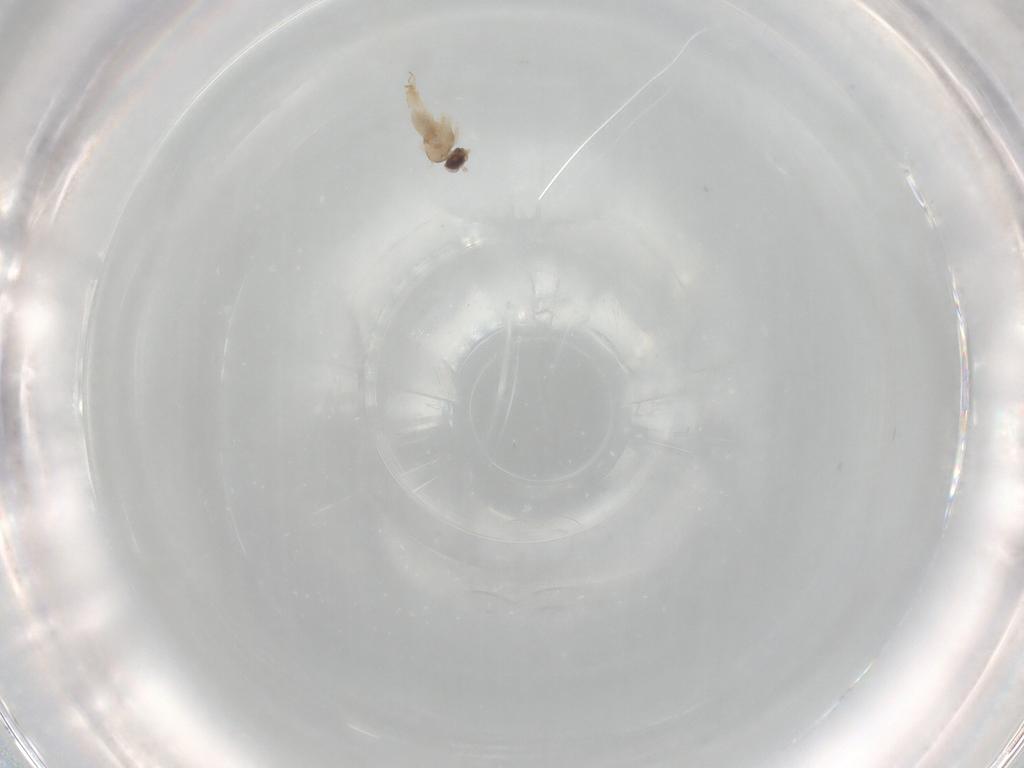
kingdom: Animalia
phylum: Arthropoda
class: Insecta
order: Diptera
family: Anthomyiidae
